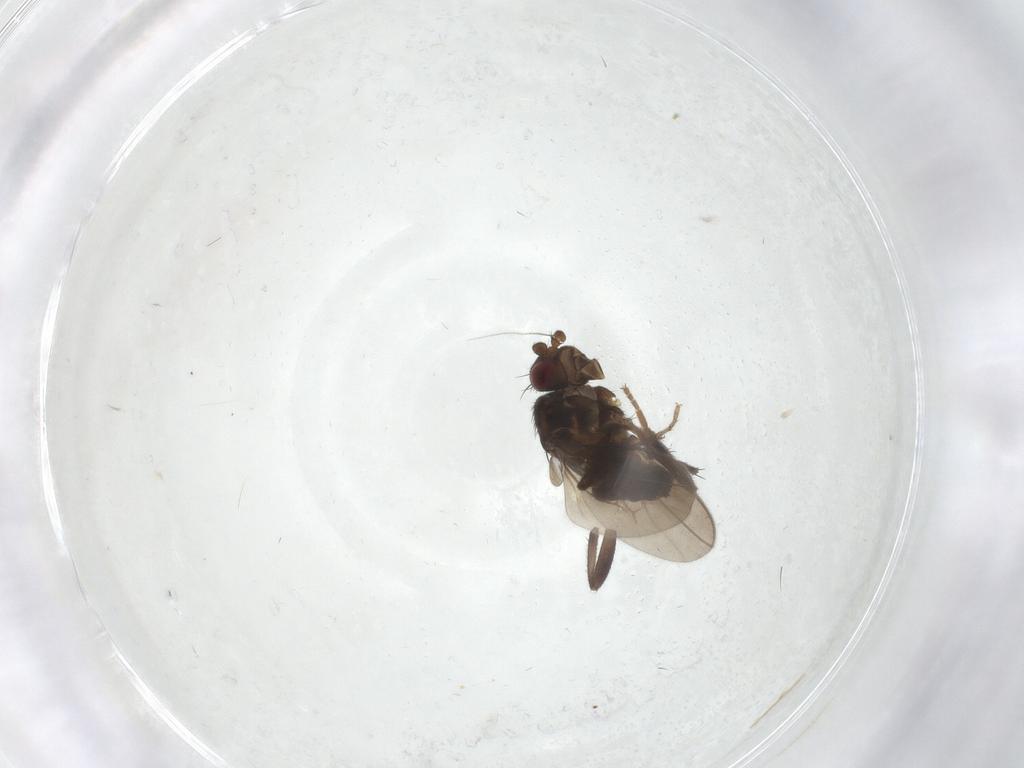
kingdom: Animalia
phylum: Arthropoda
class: Insecta
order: Diptera
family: Sphaeroceridae
